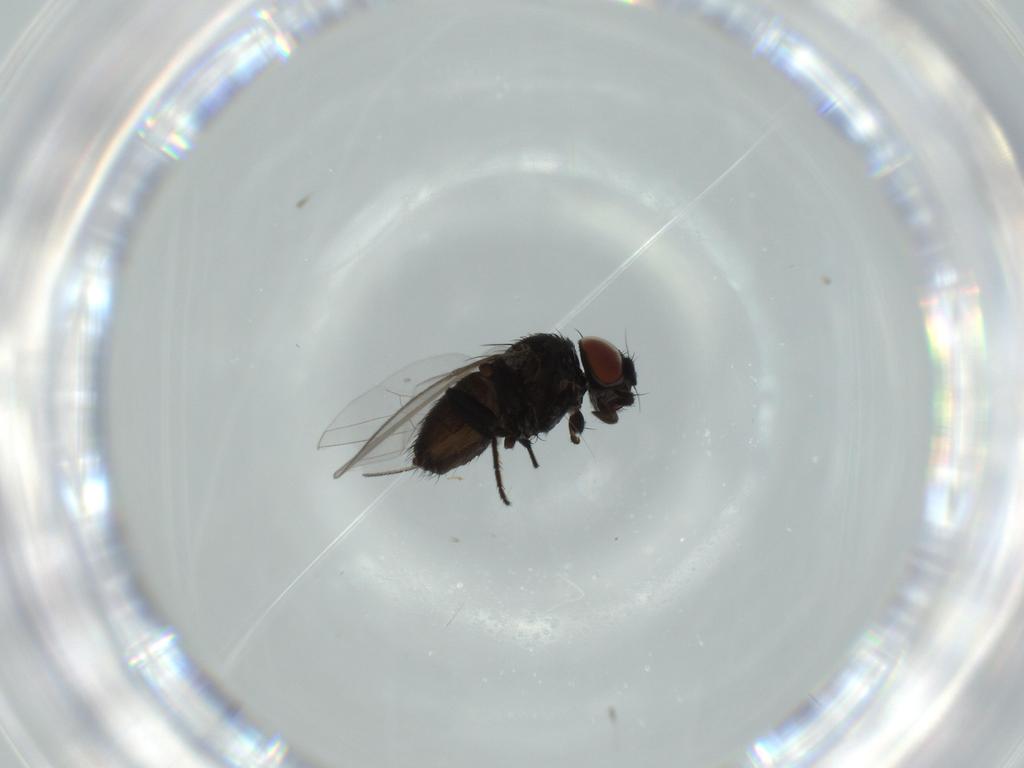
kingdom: Animalia
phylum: Arthropoda
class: Insecta
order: Diptera
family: Milichiidae
